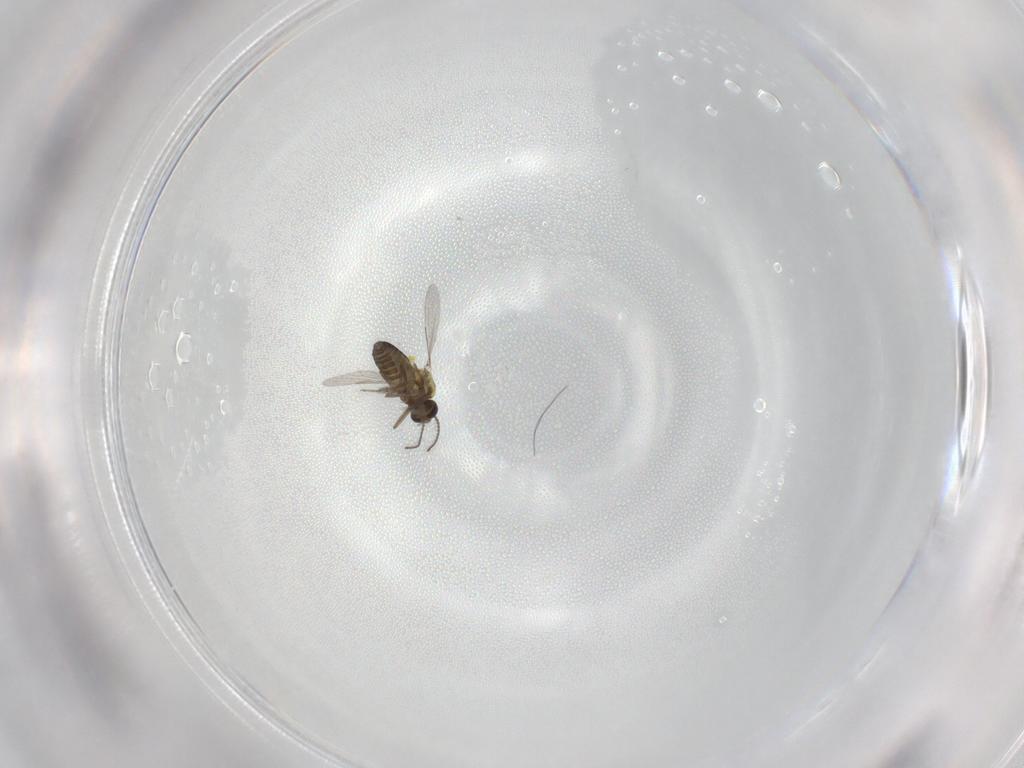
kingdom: Animalia
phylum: Arthropoda
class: Insecta
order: Diptera
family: Ceratopogonidae
